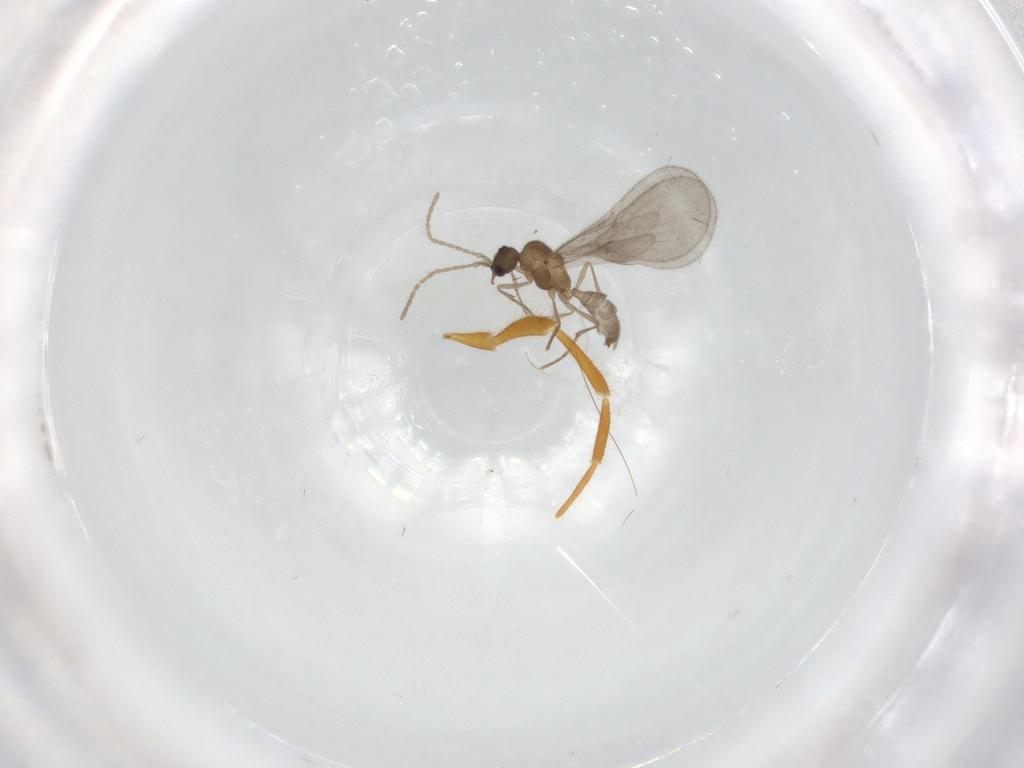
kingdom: Animalia
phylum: Arthropoda
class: Insecta
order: Hymenoptera
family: Formicidae
